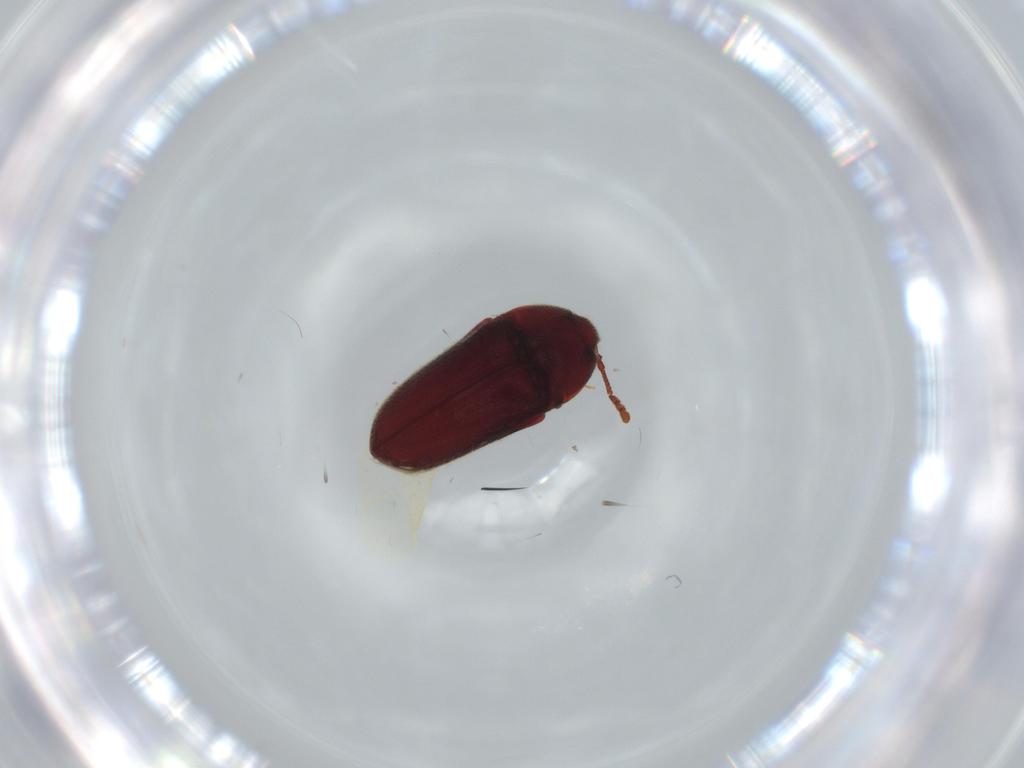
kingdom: Animalia
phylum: Arthropoda
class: Insecta
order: Coleoptera
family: Throscidae
